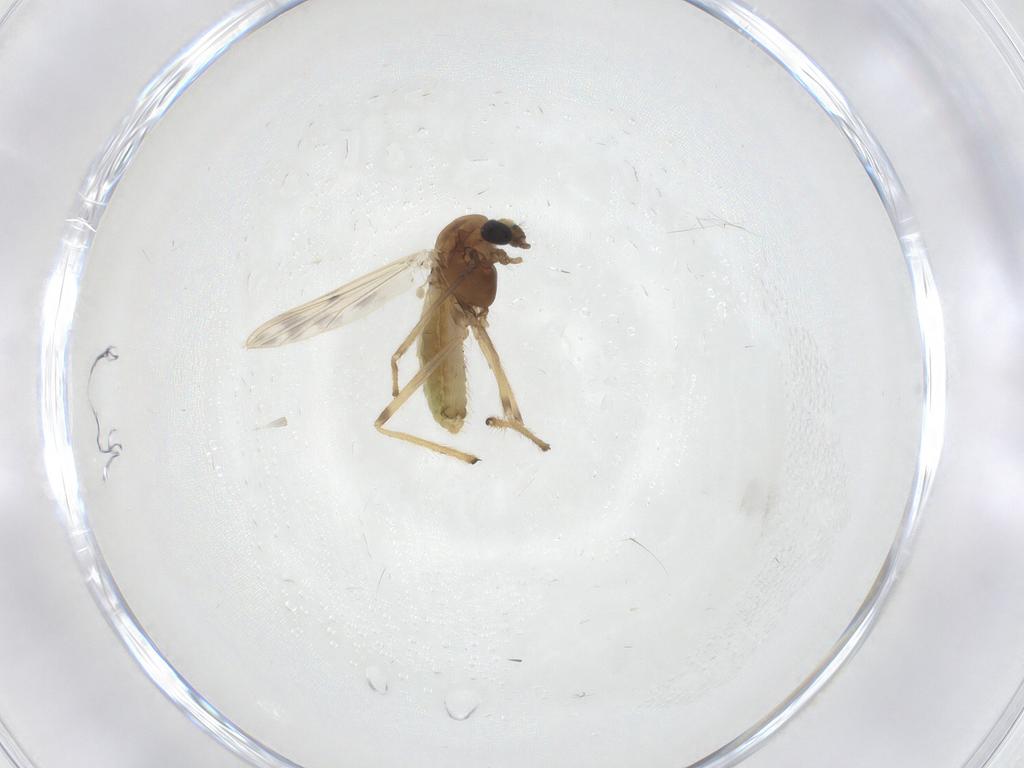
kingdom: Animalia
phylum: Arthropoda
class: Insecta
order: Diptera
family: Chironomidae
